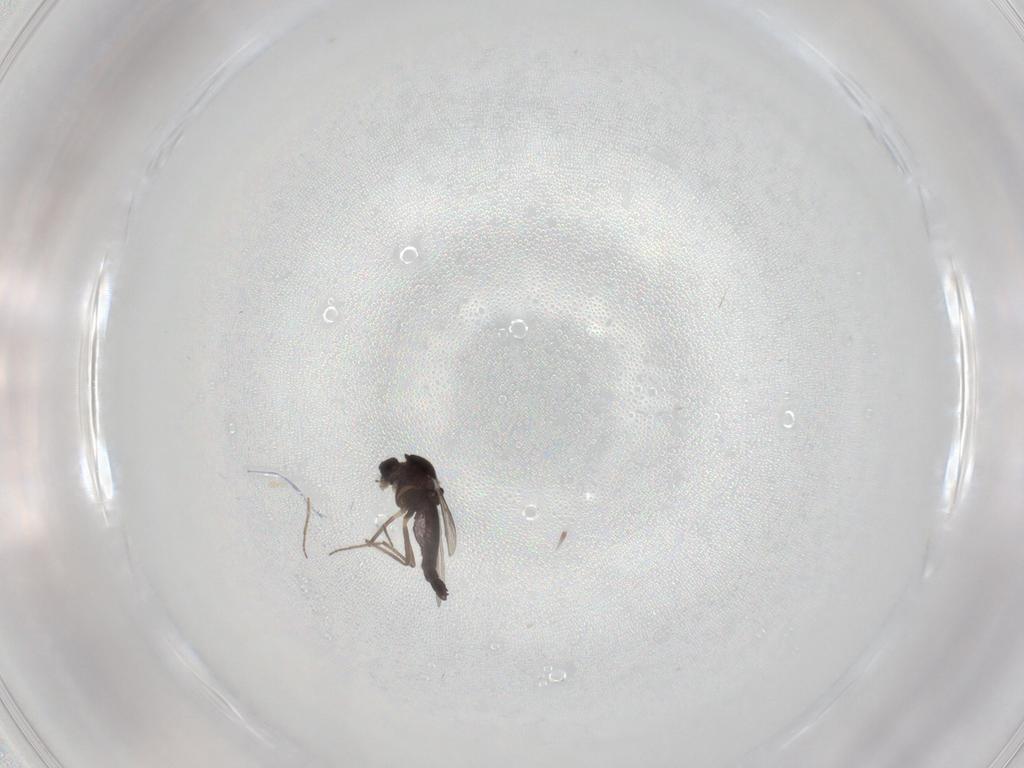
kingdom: Animalia
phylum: Arthropoda
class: Insecta
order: Diptera
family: Chironomidae
